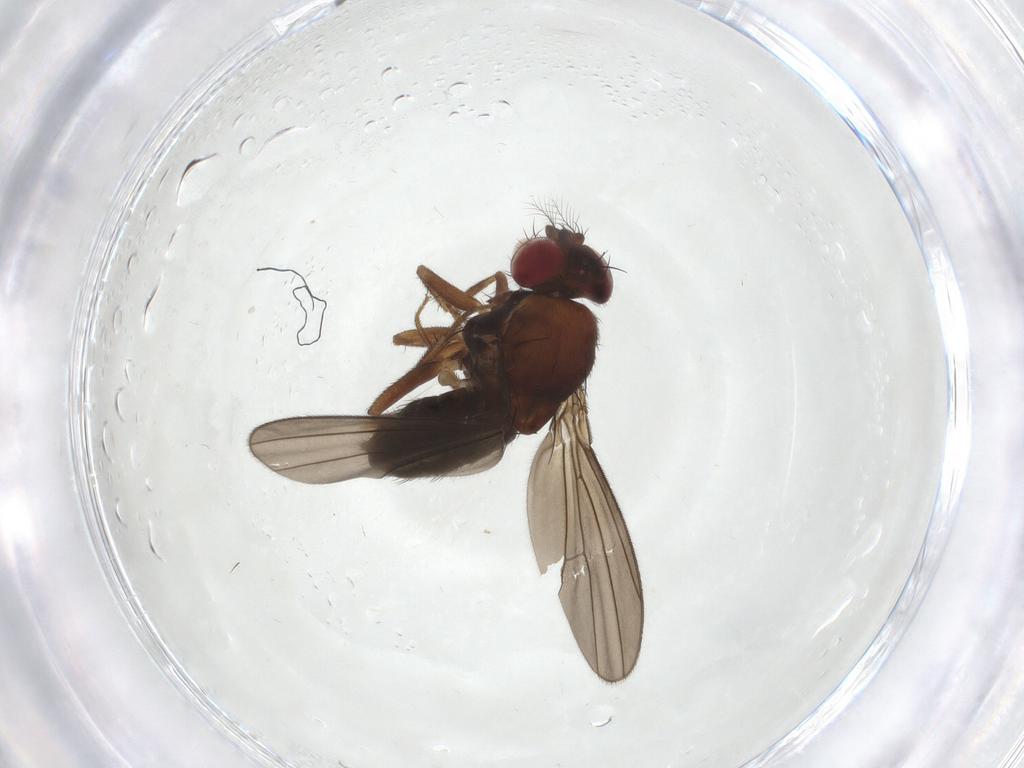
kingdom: Animalia
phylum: Arthropoda
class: Insecta
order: Diptera
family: Drosophilidae
